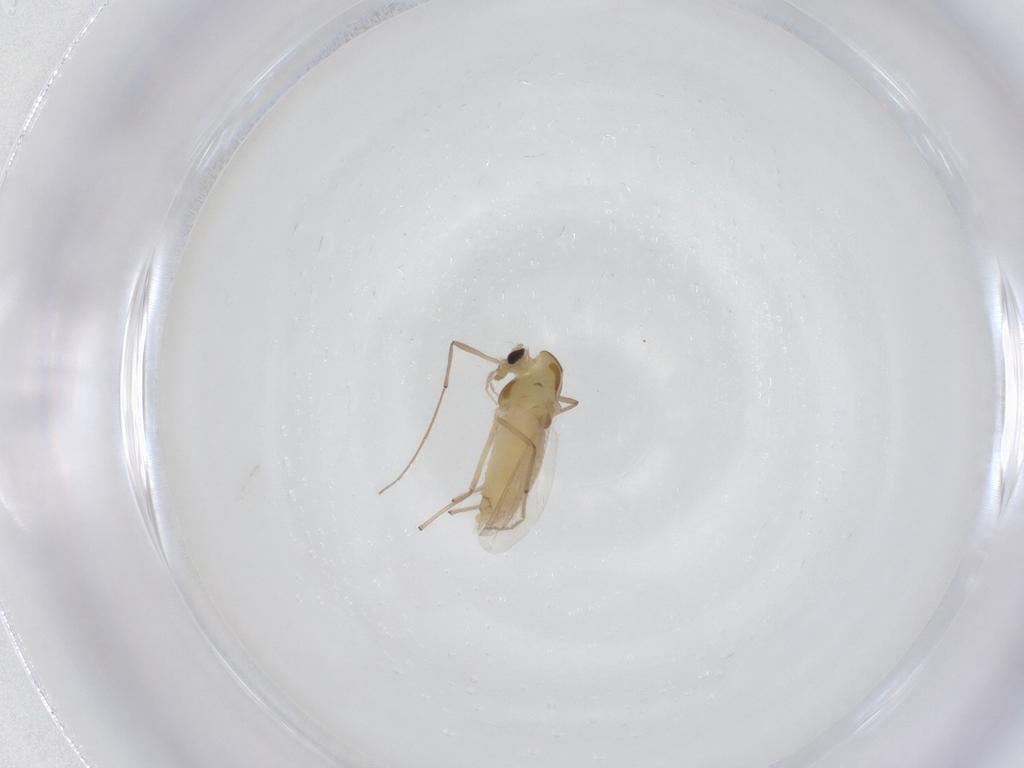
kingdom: Animalia
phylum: Arthropoda
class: Insecta
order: Diptera
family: Chironomidae
